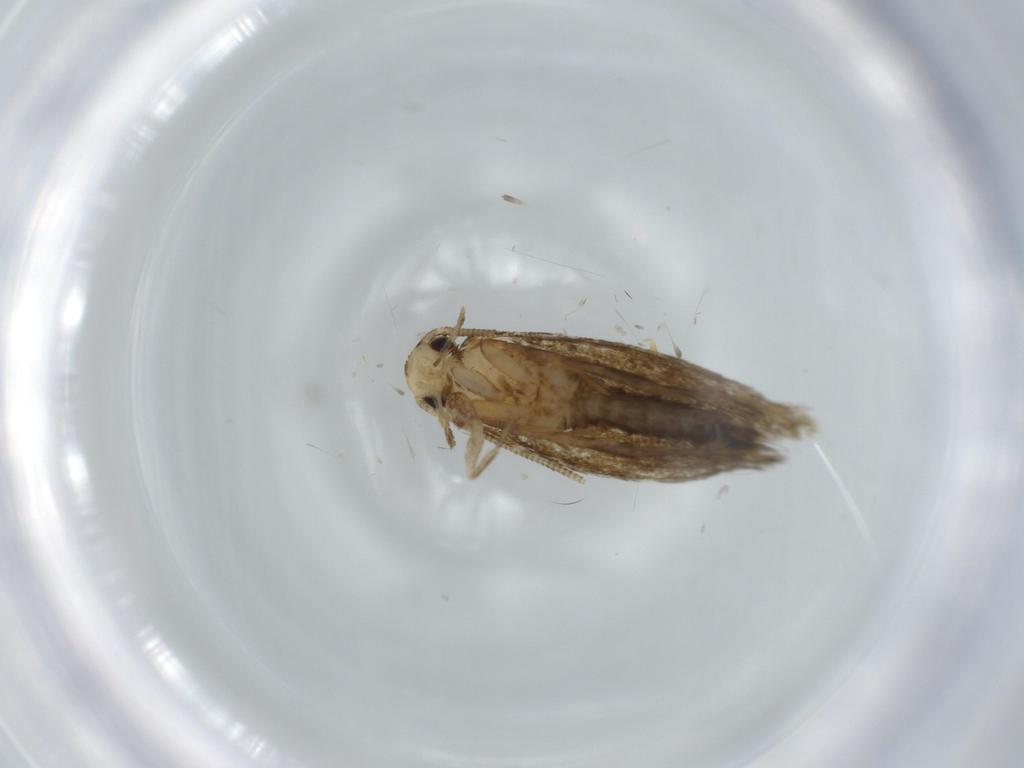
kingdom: Animalia
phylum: Arthropoda
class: Insecta
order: Lepidoptera
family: Tineidae
